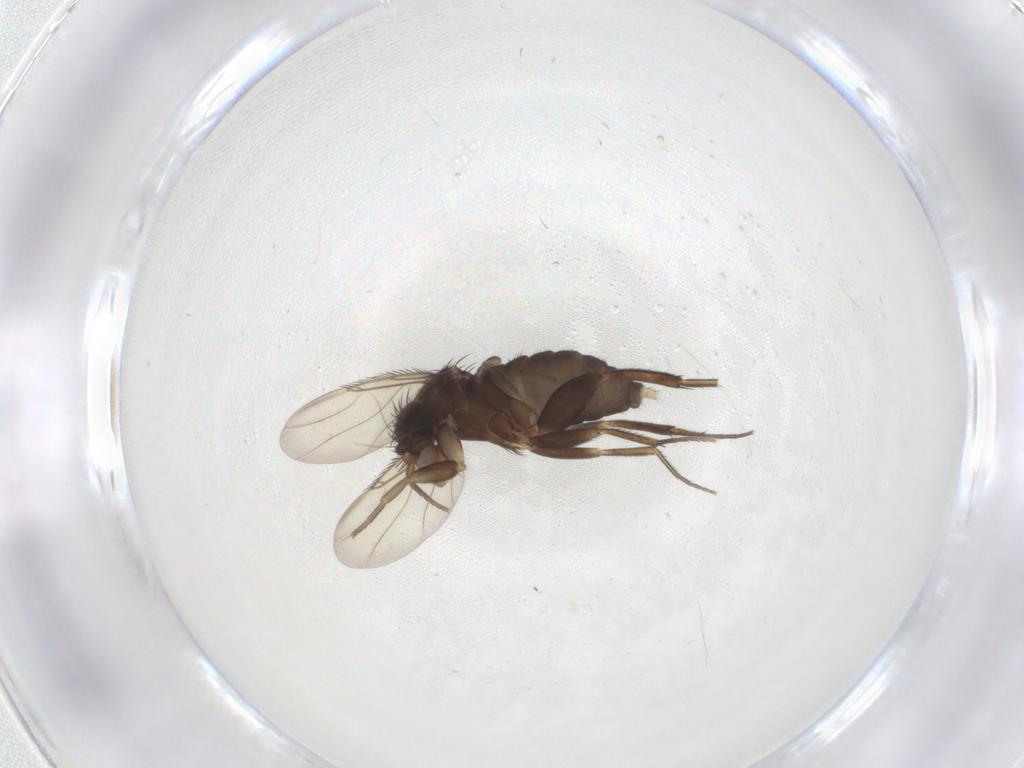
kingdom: Animalia
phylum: Arthropoda
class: Insecta
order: Diptera
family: Phoridae
